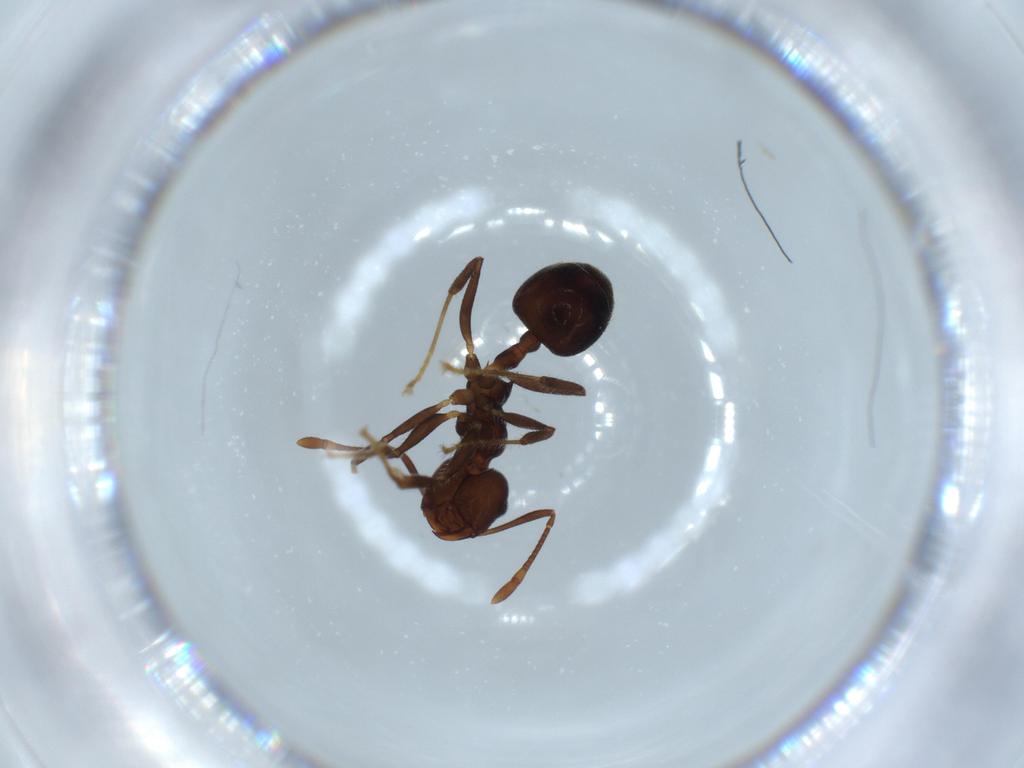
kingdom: Animalia
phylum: Arthropoda
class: Insecta
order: Hymenoptera
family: Formicidae
